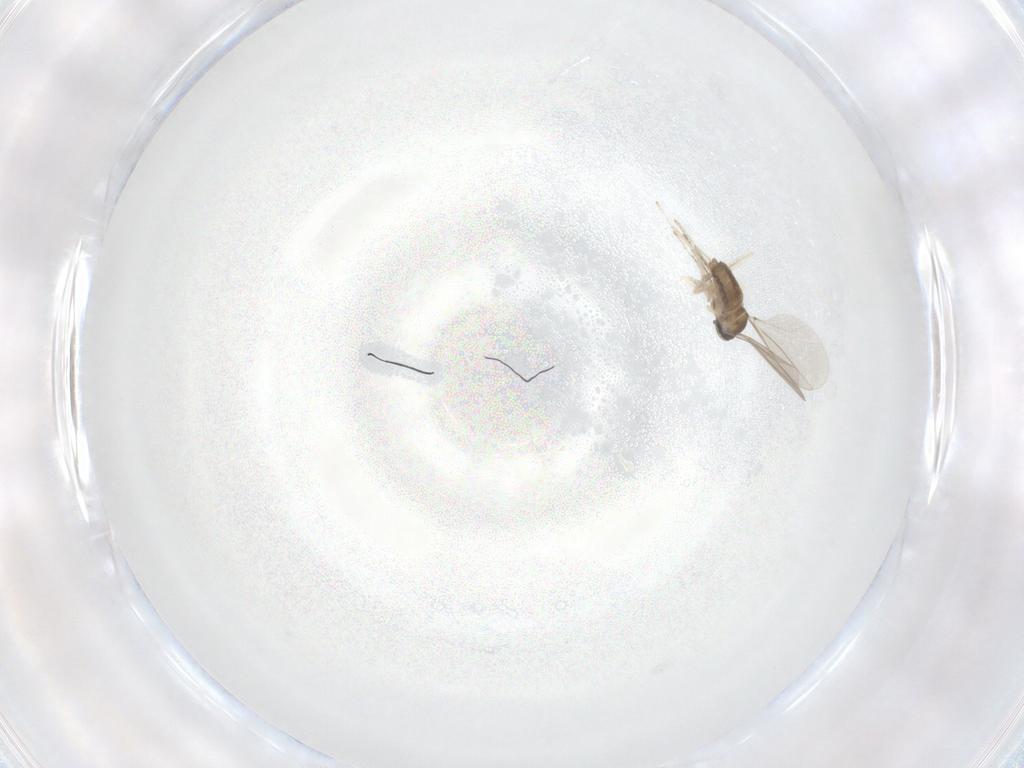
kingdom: Animalia
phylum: Arthropoda
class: Insecta
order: Diptera
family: Cecidomyiidae
